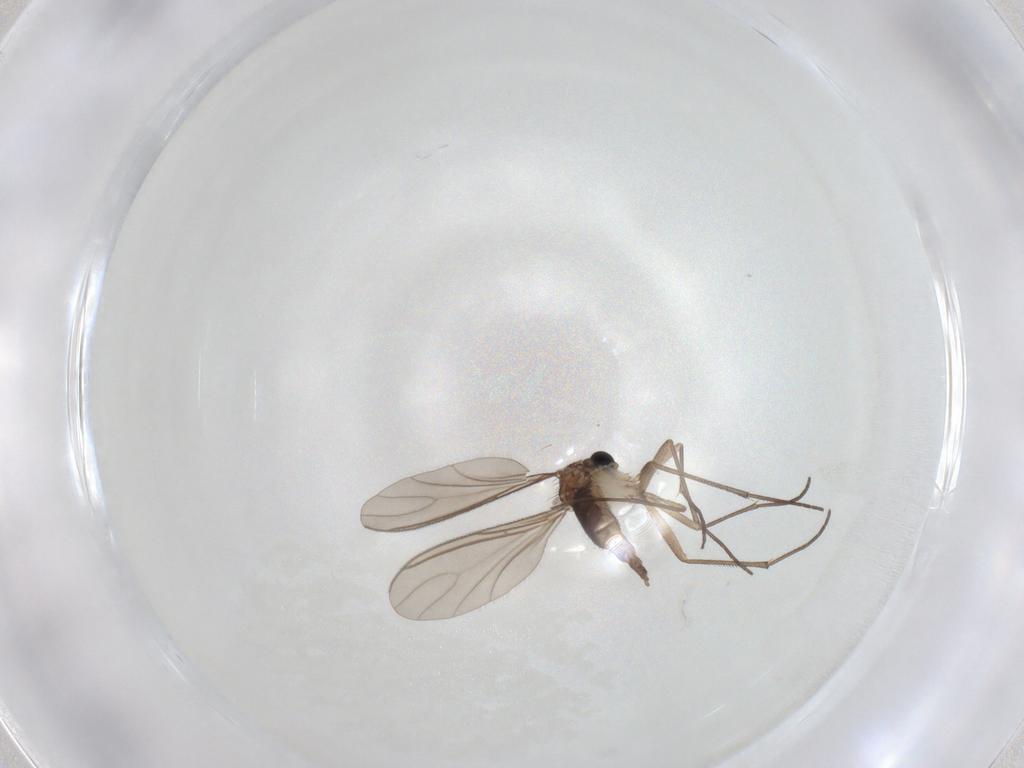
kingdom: Animalia
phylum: Arthropoda
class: Insecta
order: Diptera
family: Sciaridae
